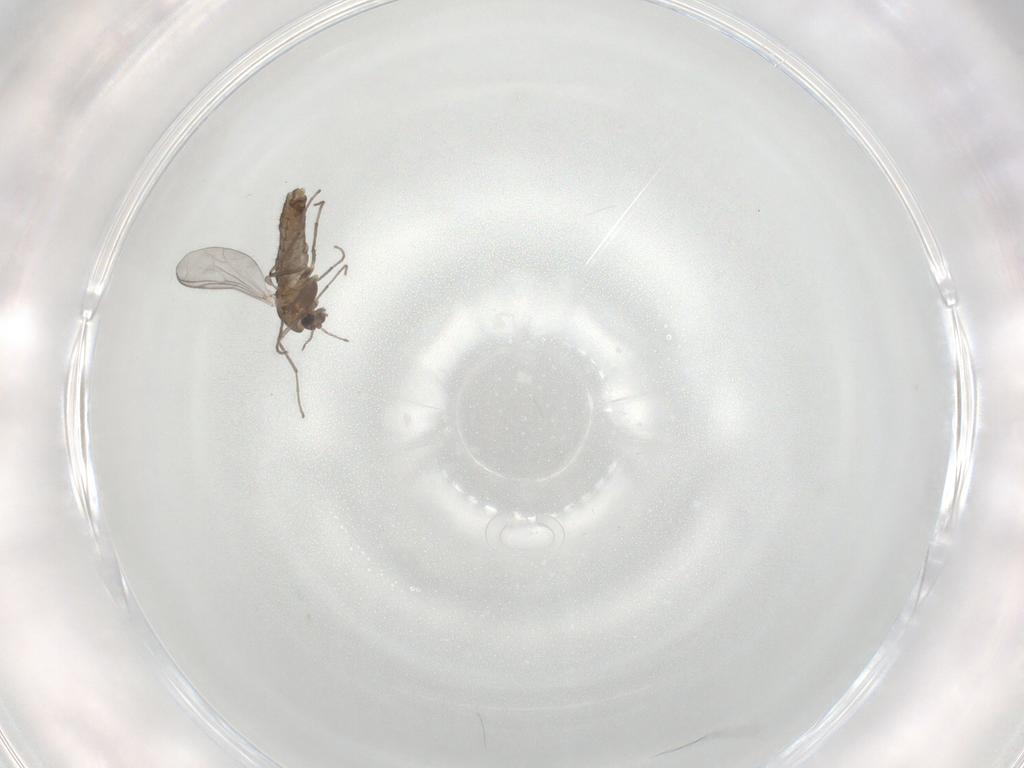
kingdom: Animalia
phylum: Arthropoda
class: Insecta
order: Diptera
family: Chironomidae
